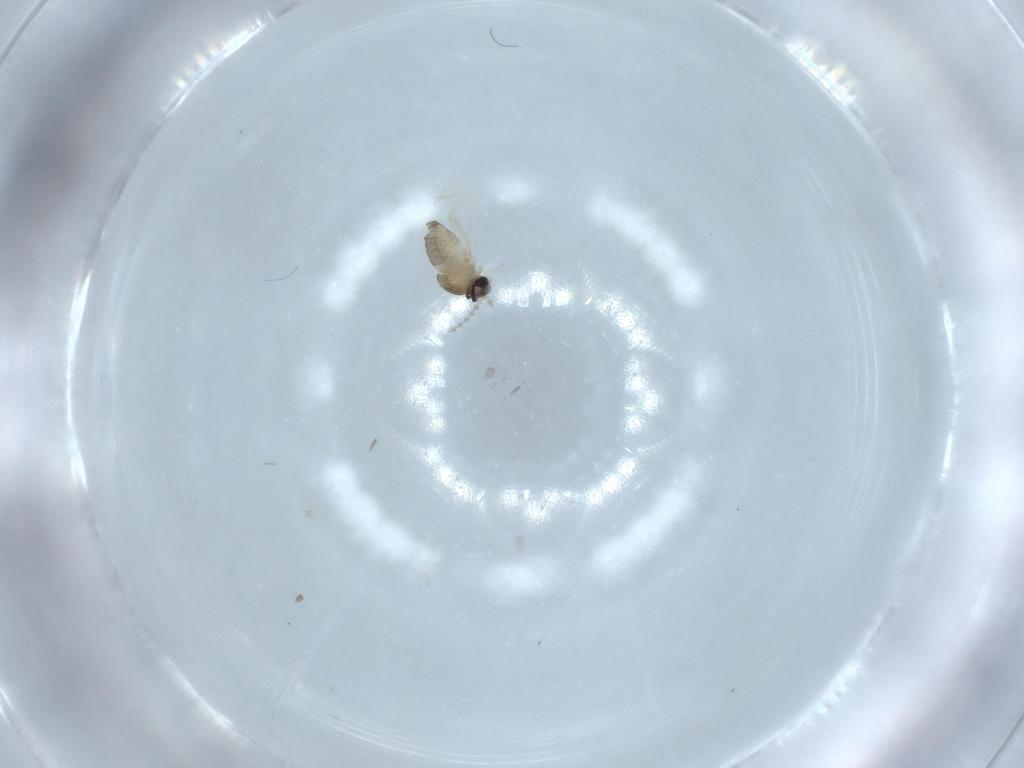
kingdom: Animalia
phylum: Arthropoda
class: Insecta
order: Diptera
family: Cecidomyiidae
